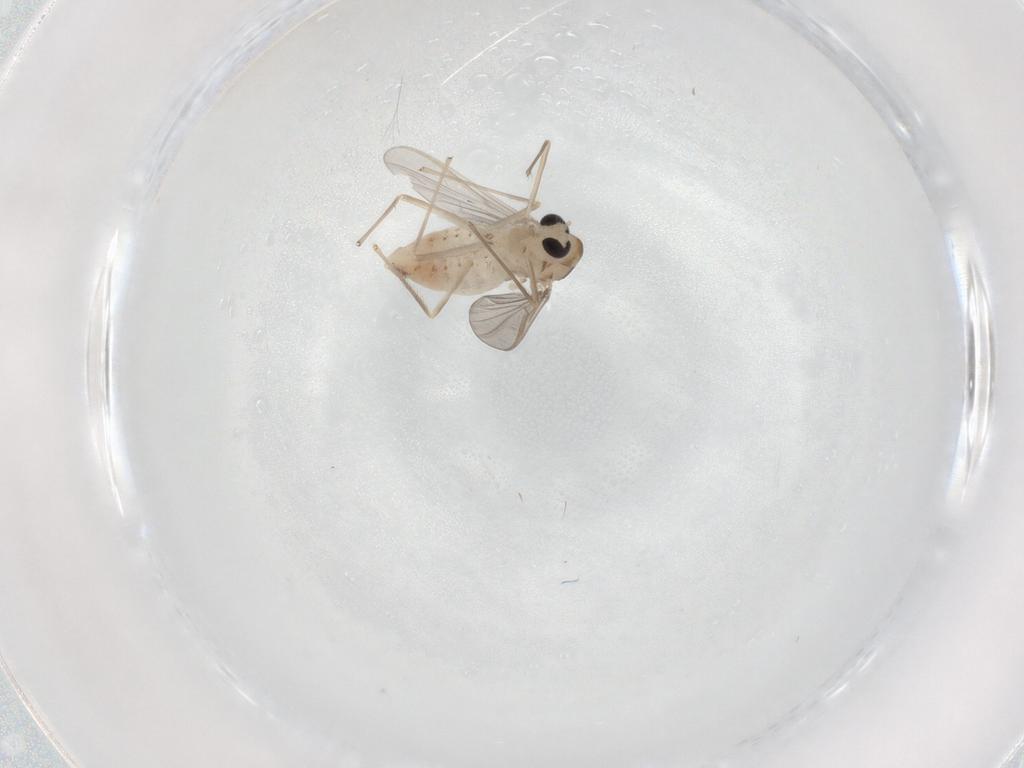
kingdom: Animalia
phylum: Arthropoda
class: Insecta
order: Diptera
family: Chironomidae
